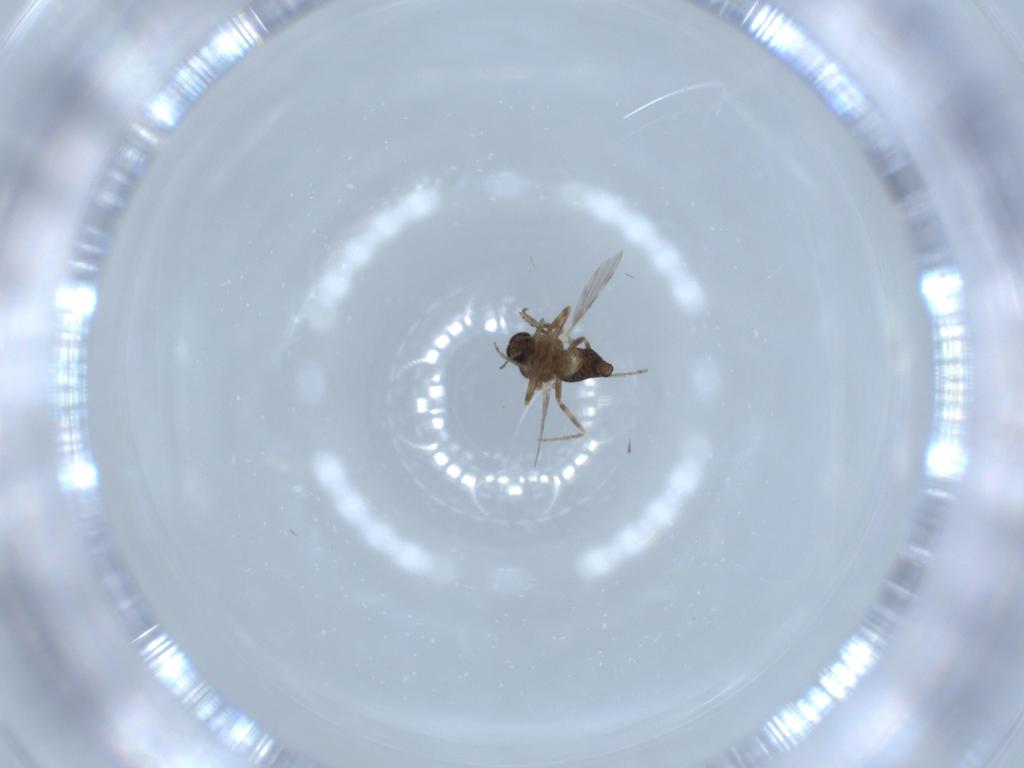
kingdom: Animalia
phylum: Arthropoda
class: Insecta
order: Diptera
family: Ceratopogonidae
